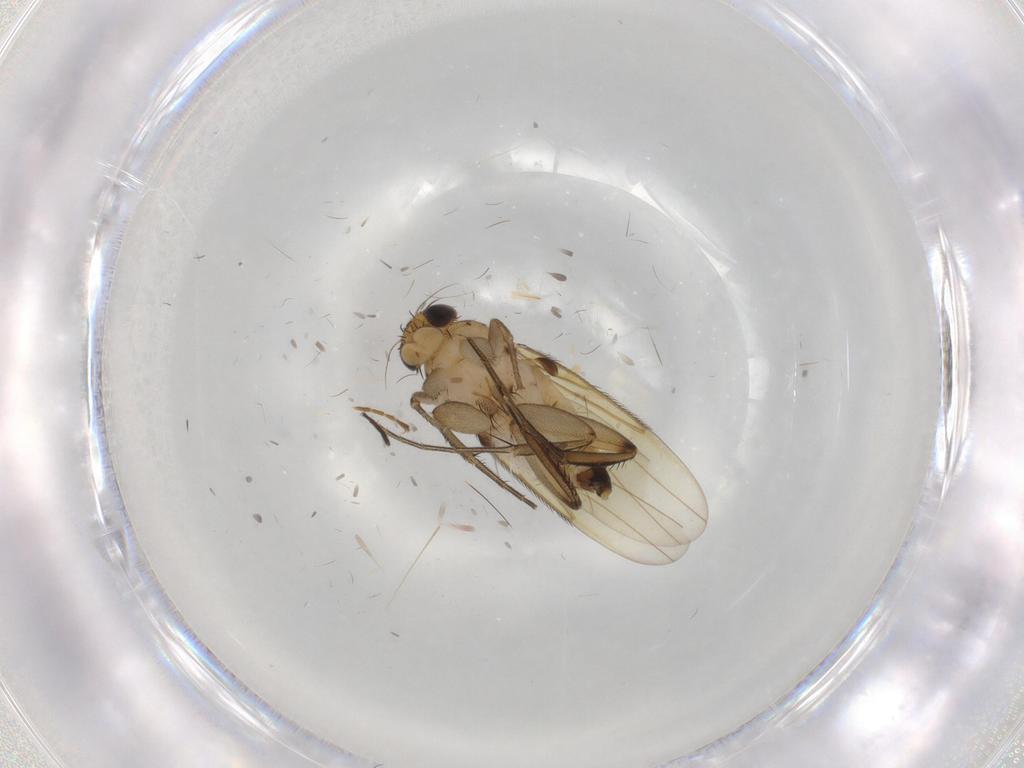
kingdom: Animalia
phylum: Arthropoda
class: Insecta
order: Diptera
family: Phoridae
